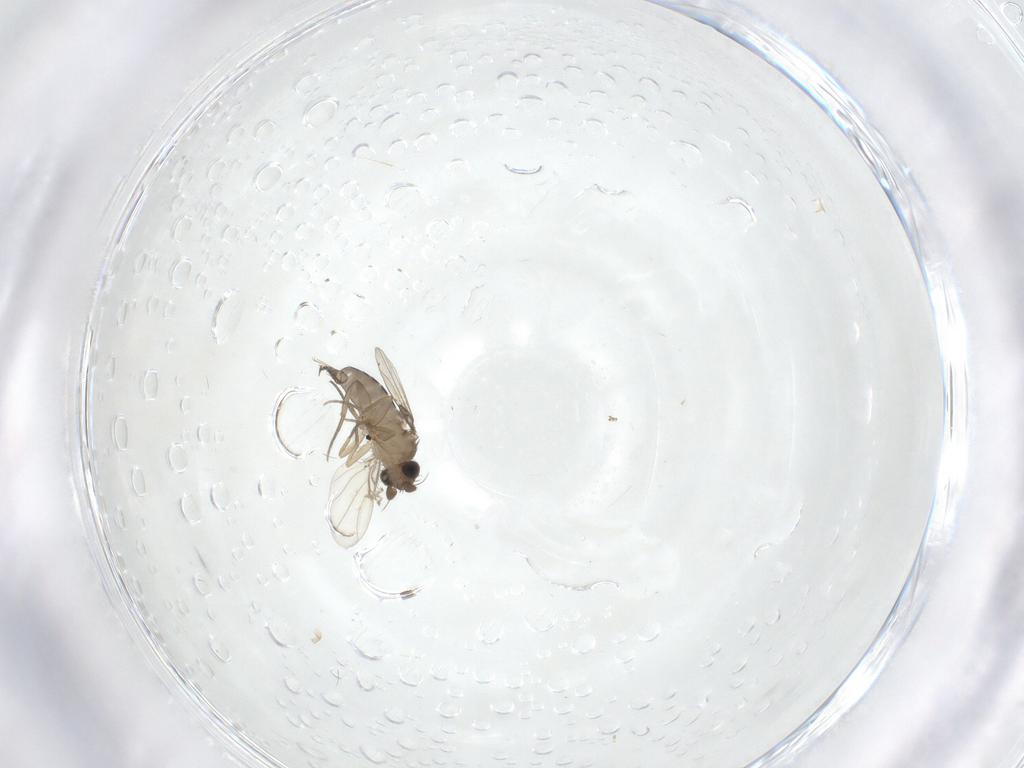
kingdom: Animalia
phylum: Arthropoda
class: Insecta
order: Diptera
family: Phoridae
